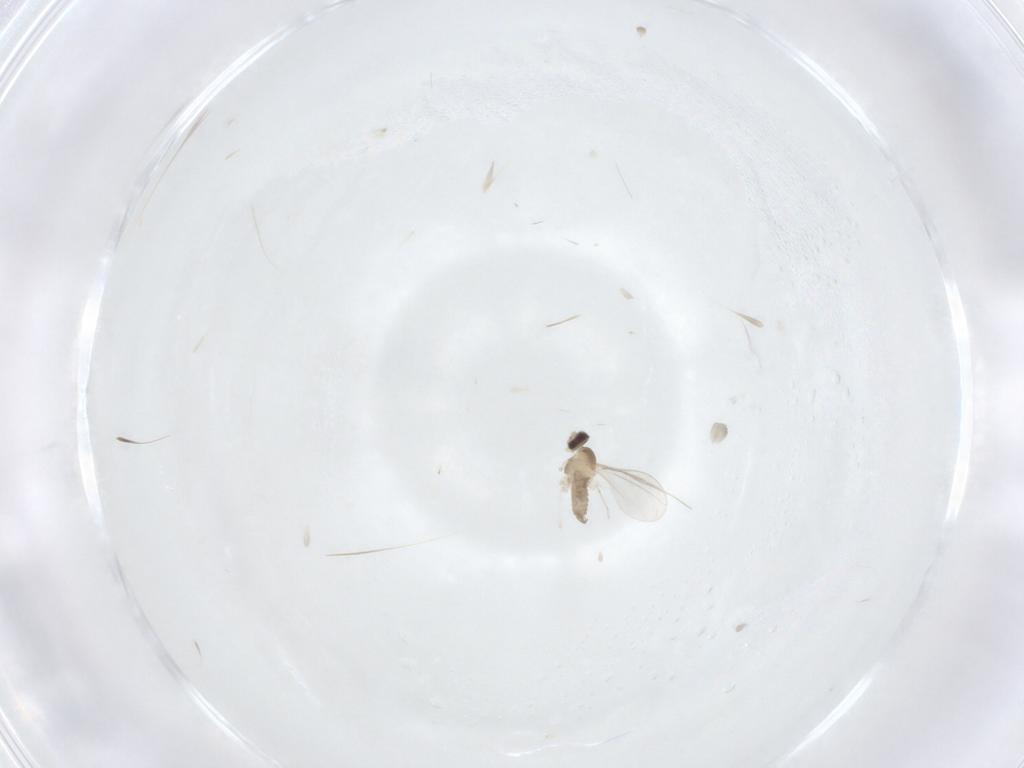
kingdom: Animalia
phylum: Arthropoda
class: Insecta
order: Diptera
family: Cecidomyiidae
